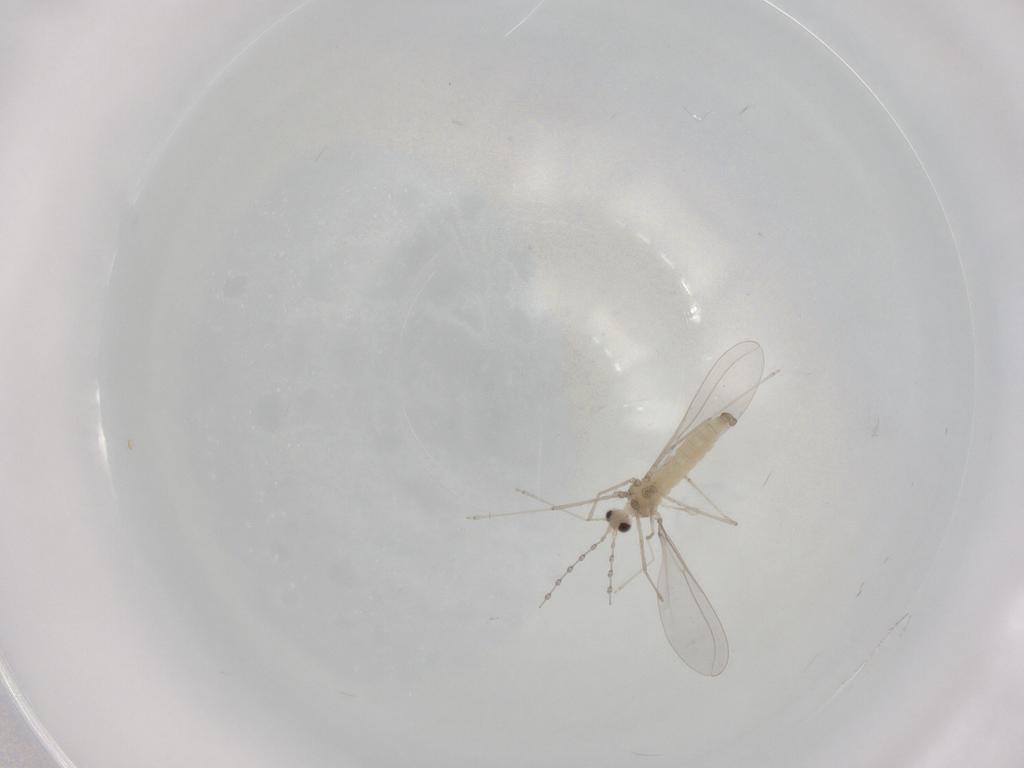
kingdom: Animalia
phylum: Arthropoda
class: Insecta
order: Diptera
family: Cecidomyiidae
